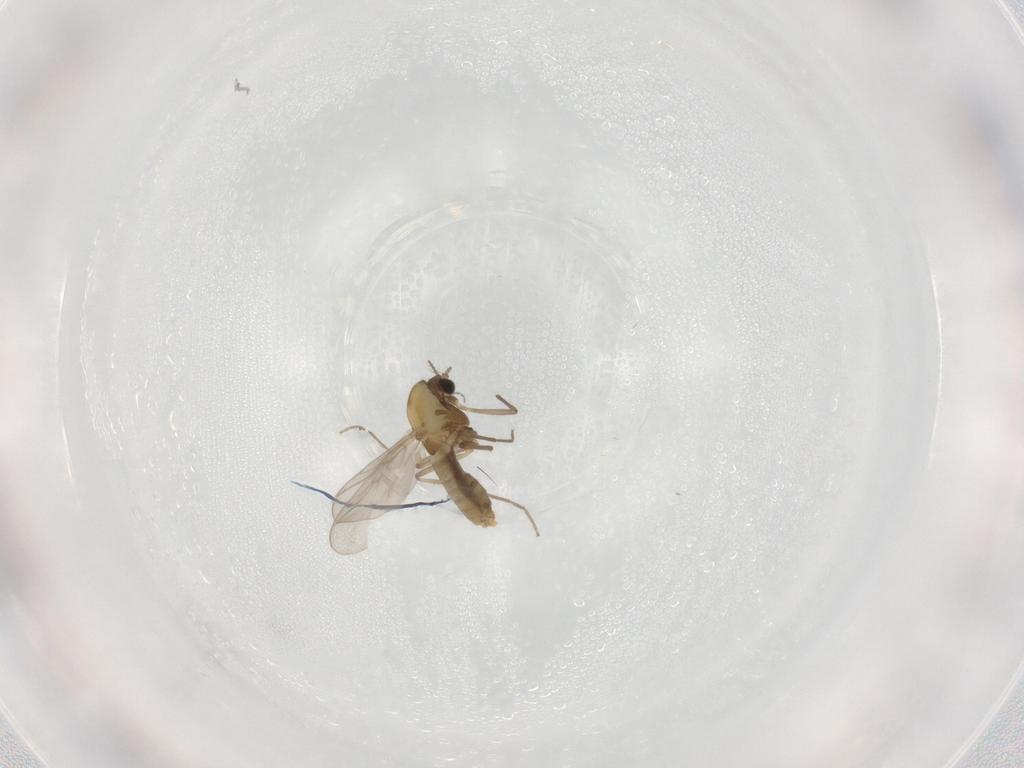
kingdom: Animalia
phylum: Arthropoda
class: Insecta
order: Diptera
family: Chironomidae
